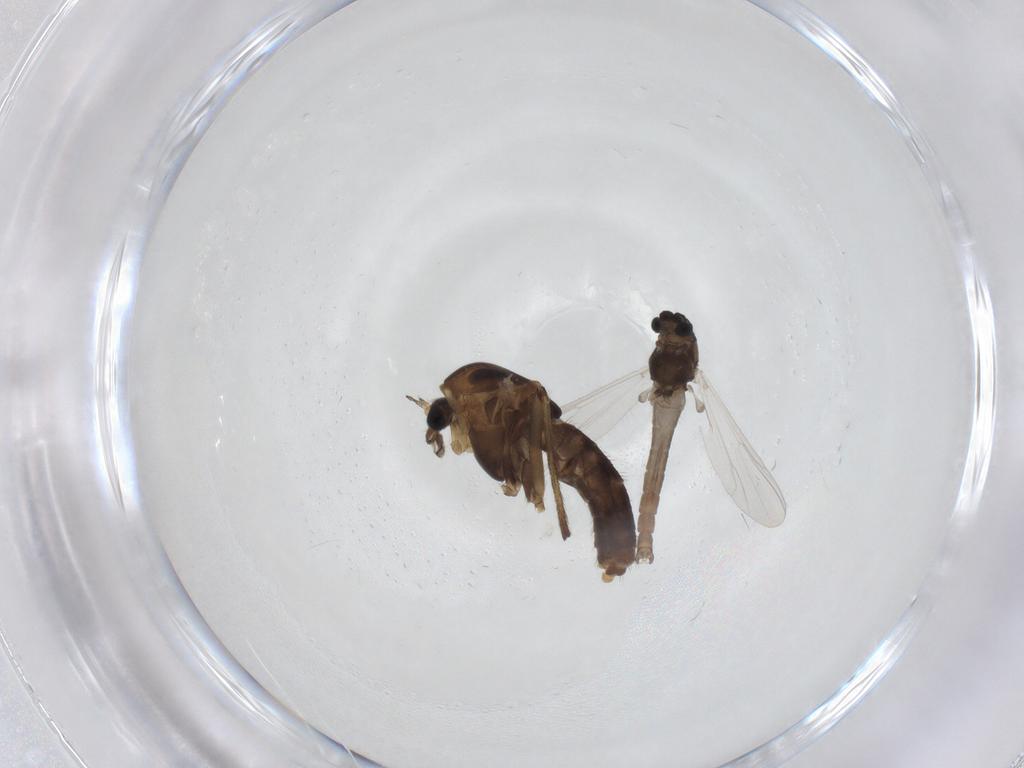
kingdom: Animalia
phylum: Arthropoda
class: Insecta
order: Diptera
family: Chironomidae
